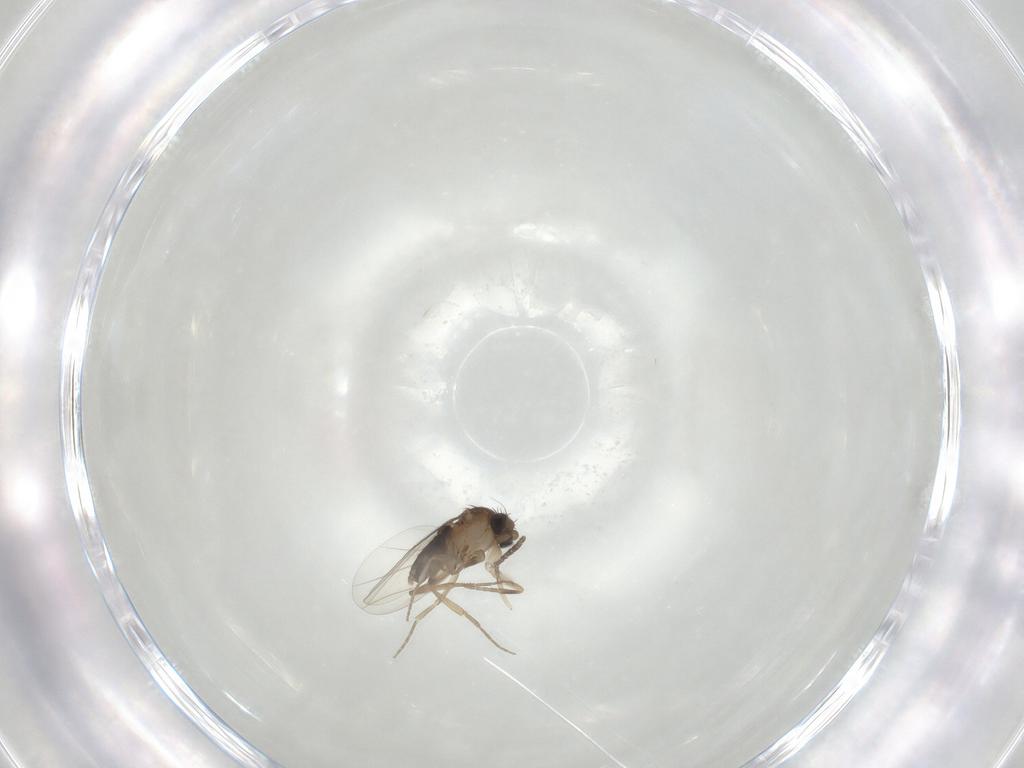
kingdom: Animalia
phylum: Arthropoda
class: Insecta
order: Diptera
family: Phoridae
